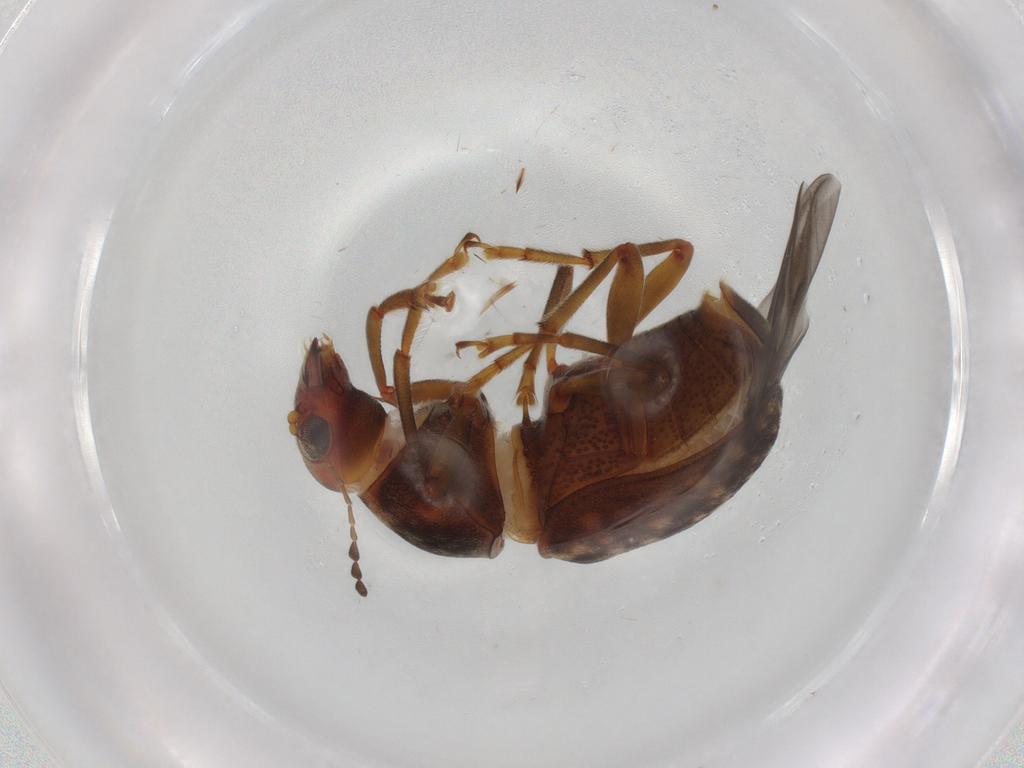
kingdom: Animalia
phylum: Arthropoda
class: Insecta
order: Coleoptera
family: Anthribidae
